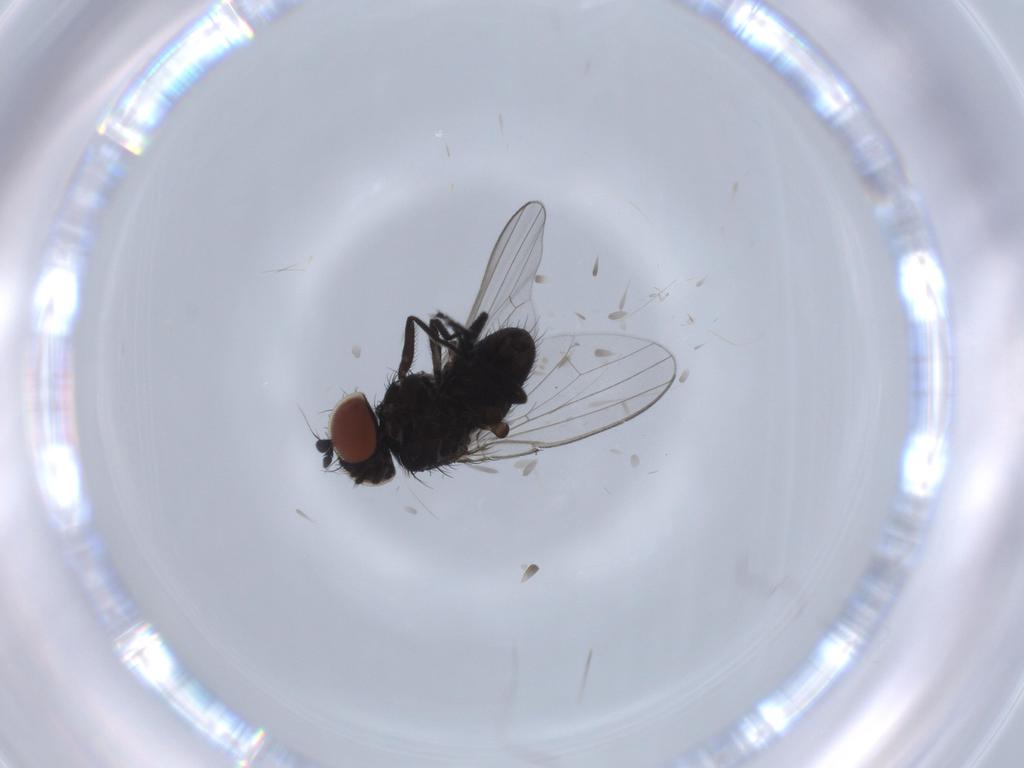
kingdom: Animalia
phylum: Arthropoda
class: Insecta
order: Diptera
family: Milichiidae
